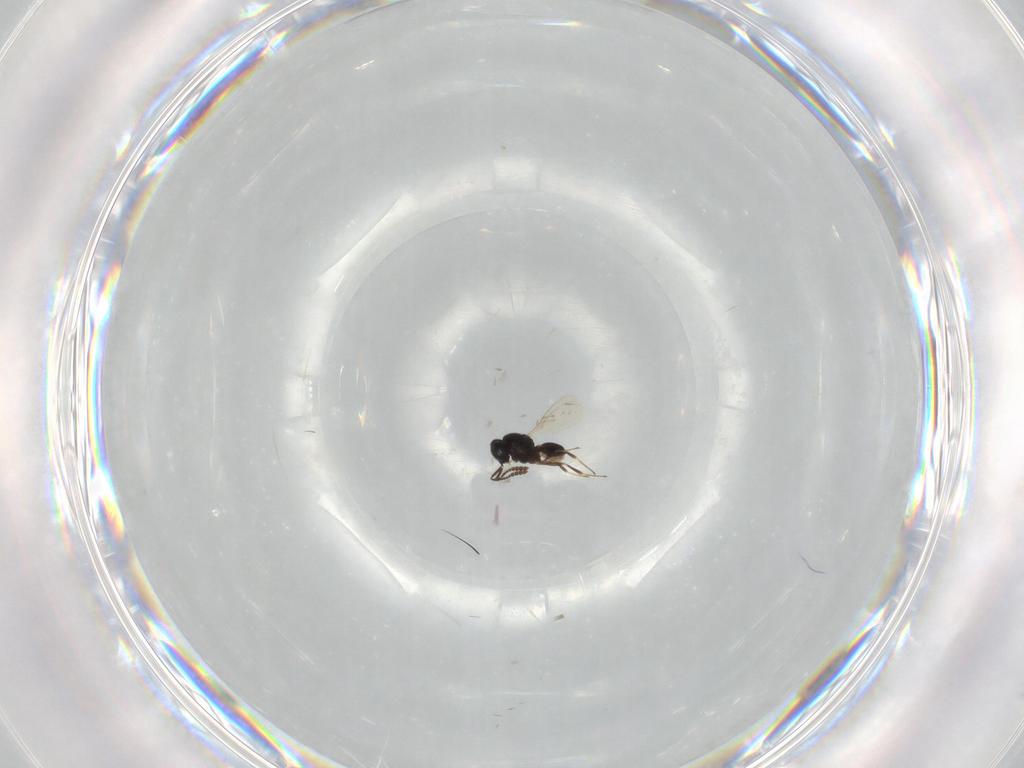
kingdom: Animalia
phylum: Arthropoda
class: Insecta
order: Hymenoptera
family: Scelionidae
